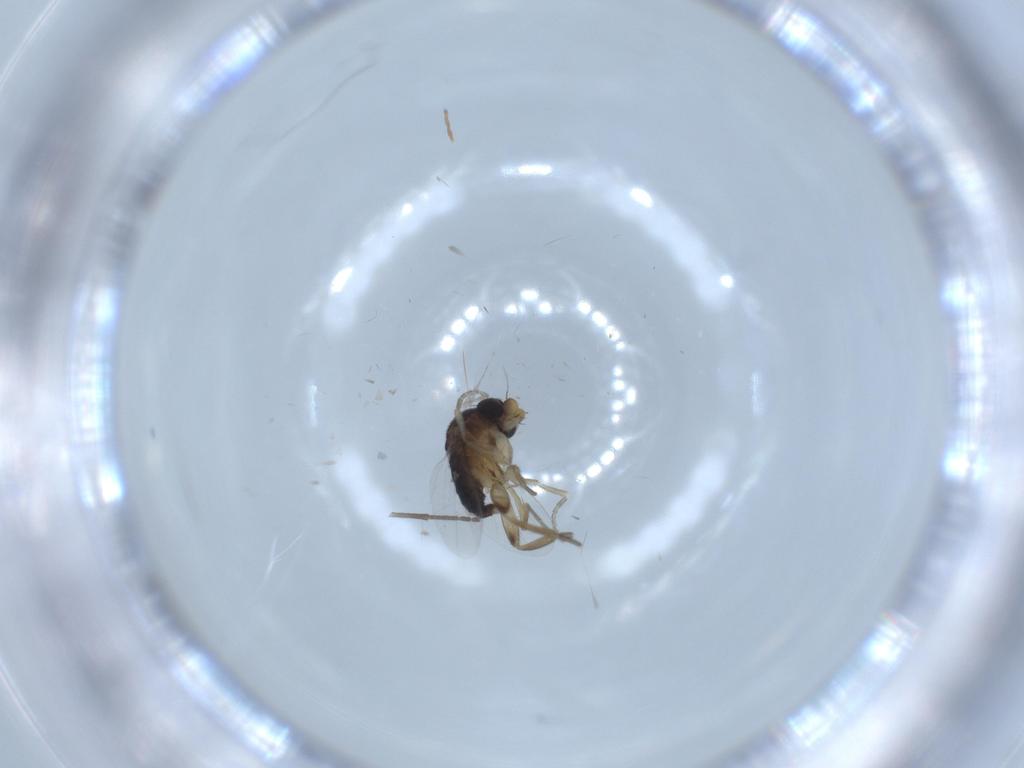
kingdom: Animalia
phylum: Arthropoda
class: Insecta
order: Diptera
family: Phoridae
